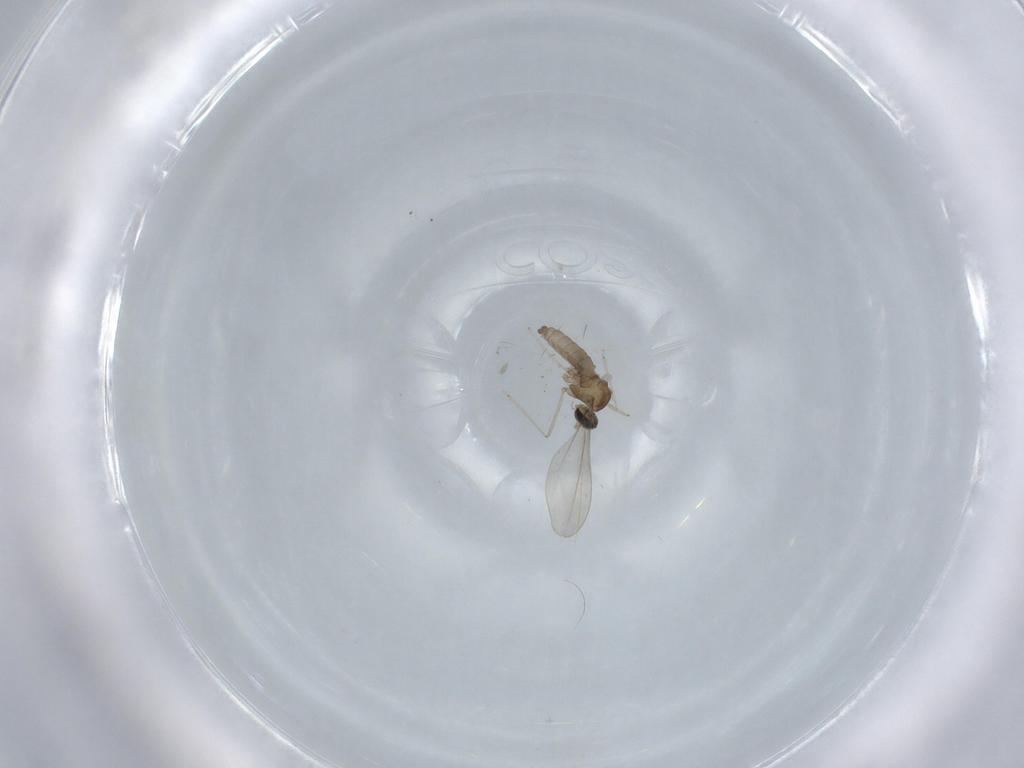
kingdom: Animalia
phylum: Arthropoda
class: Insecta
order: Diptera
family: Cecidomyiidae
